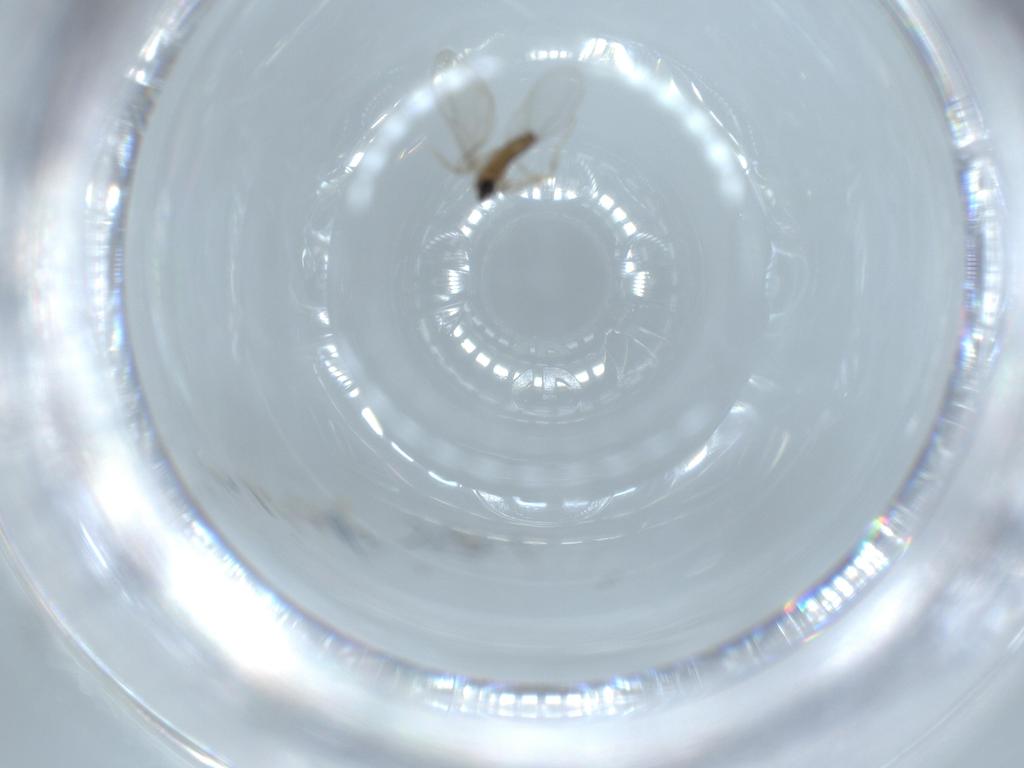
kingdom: Animalia
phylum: Arthropoda
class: Insecta
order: Diptera
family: Cecidomyiidae
